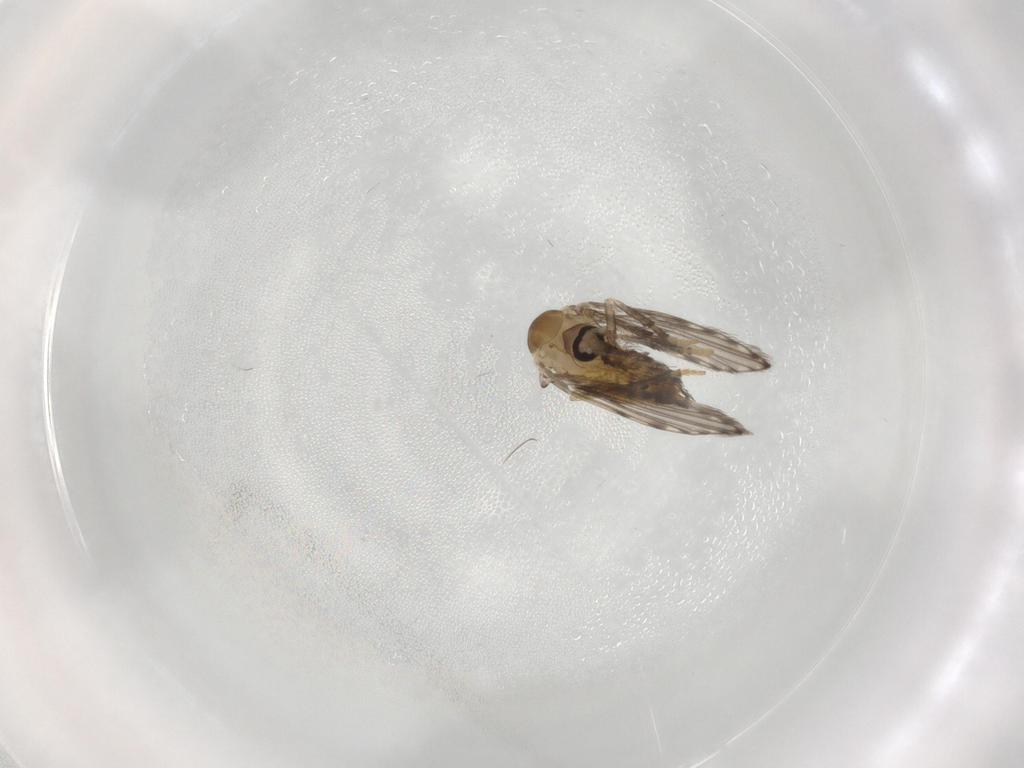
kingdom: Animalia
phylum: Arthropoda
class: Insecta
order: Diptera
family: Psychodidae
